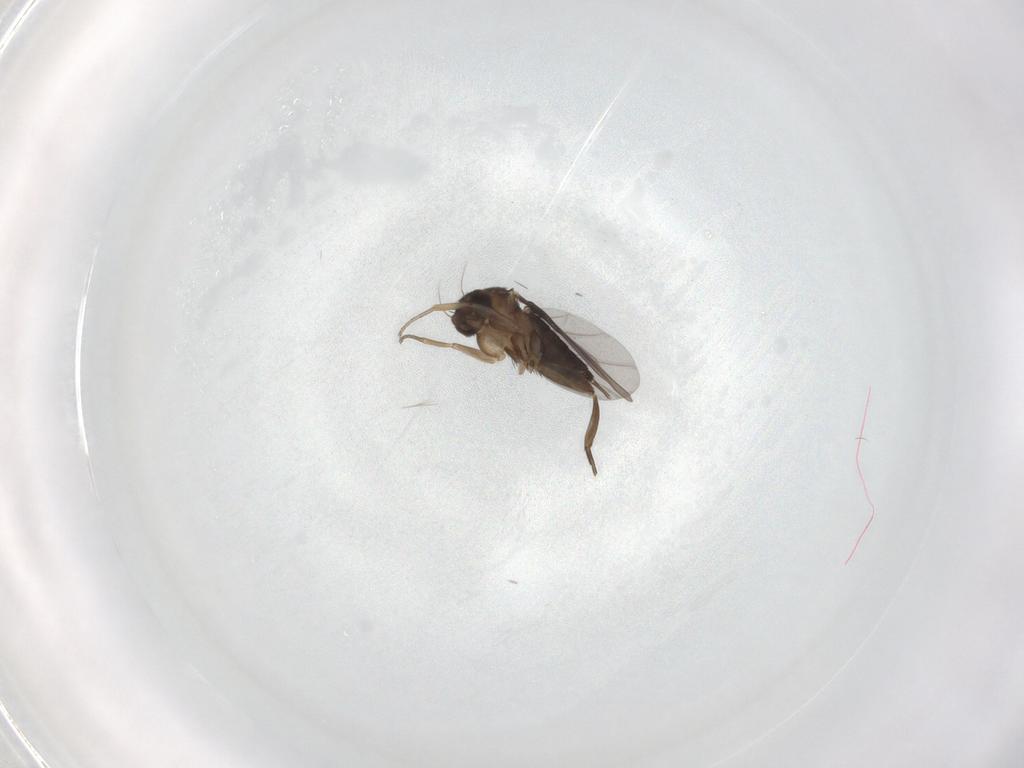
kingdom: Animalia
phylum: Arthropoda
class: Insecta
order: Diptera
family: Phoridae
